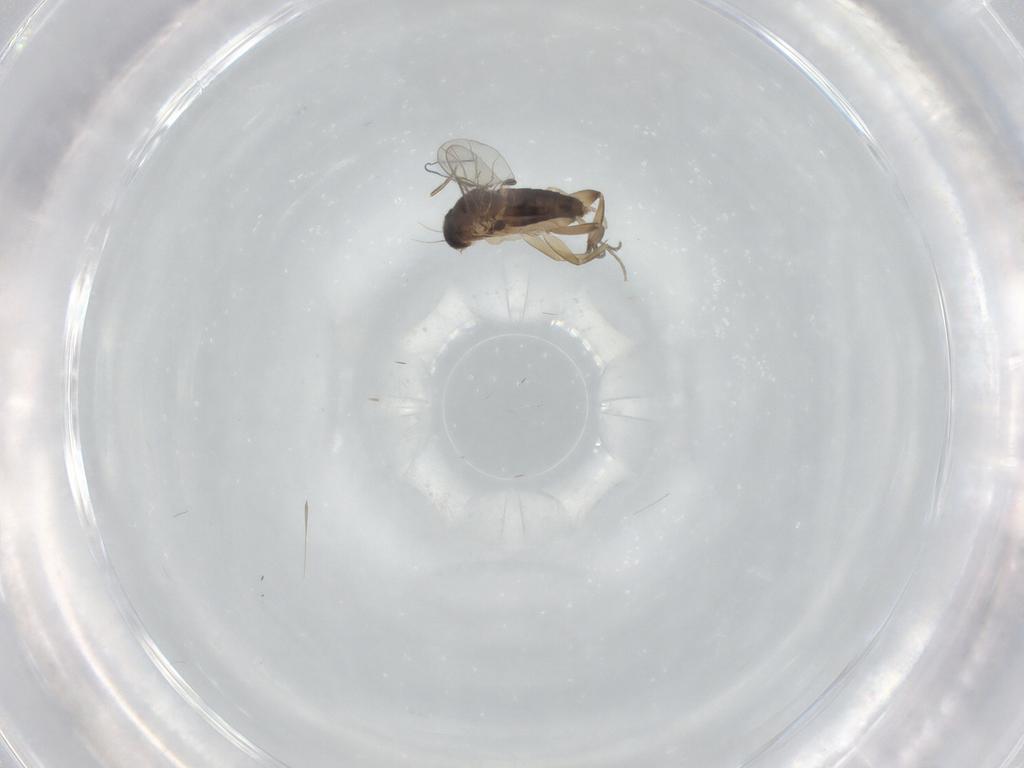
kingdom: Animalia
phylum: Arthropoda
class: Insecta
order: Diptera
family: Phoridae
